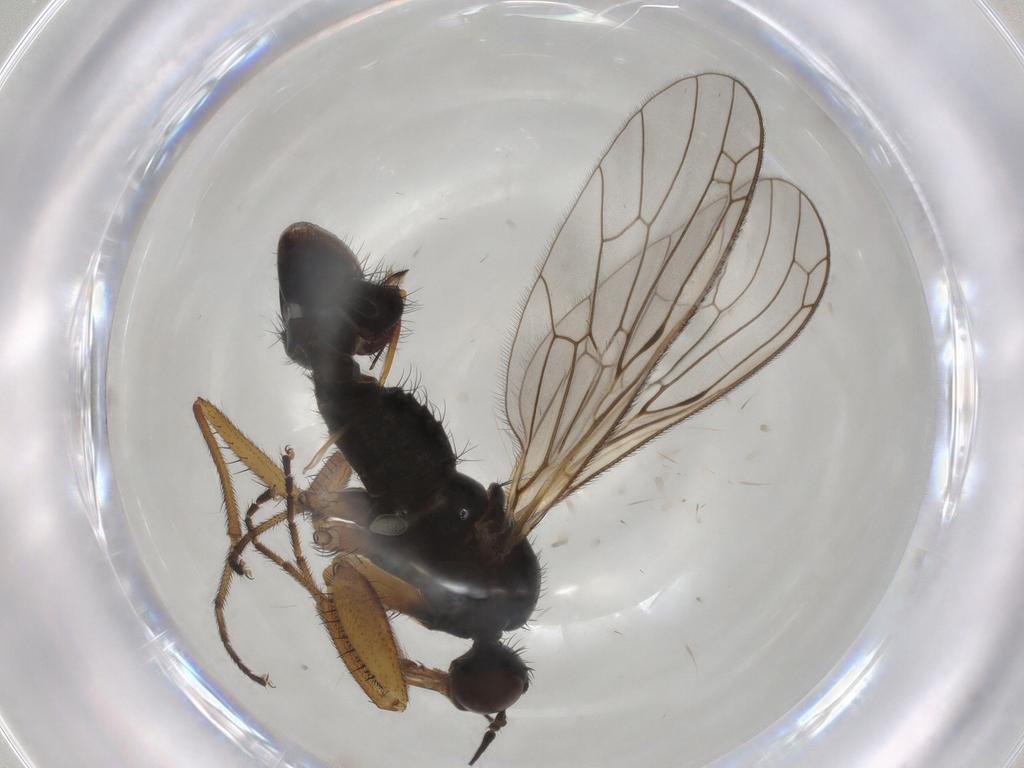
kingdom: Animalia
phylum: Arthropoda
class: Insecta
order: Diptera
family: Empididae
